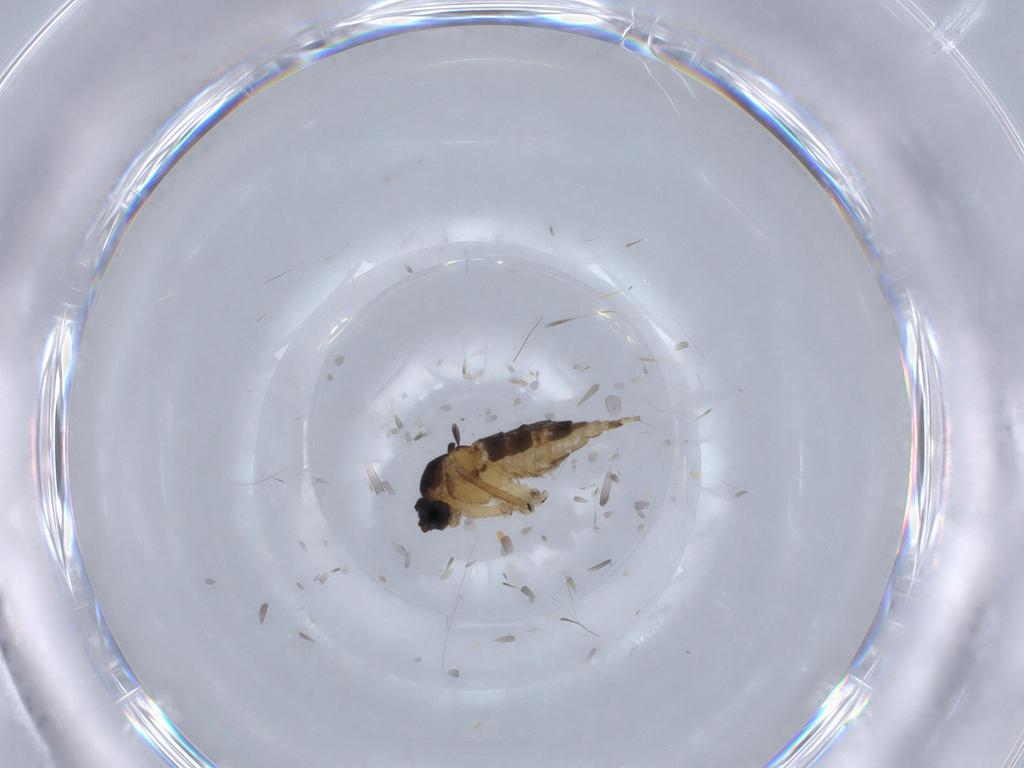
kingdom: Animalia
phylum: Arthropoda
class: Insecta
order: Diptera
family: Sciaridae
